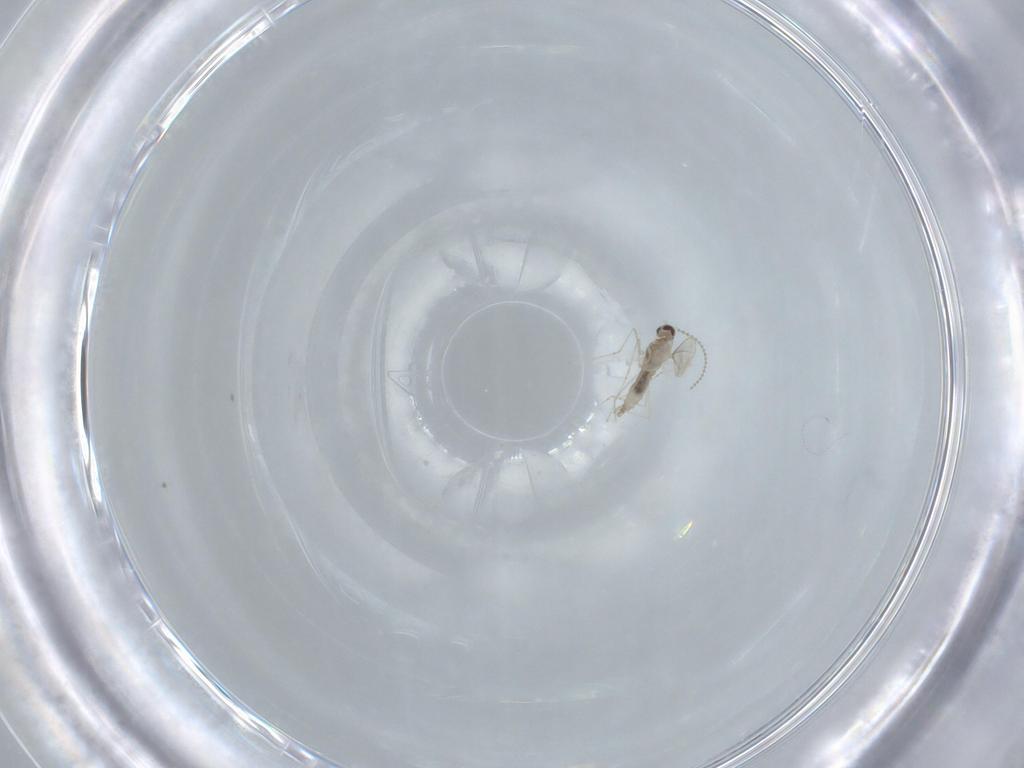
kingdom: Animalia
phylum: Arthropoda
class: Insecta
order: Diptera
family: Cecidomyiidae
